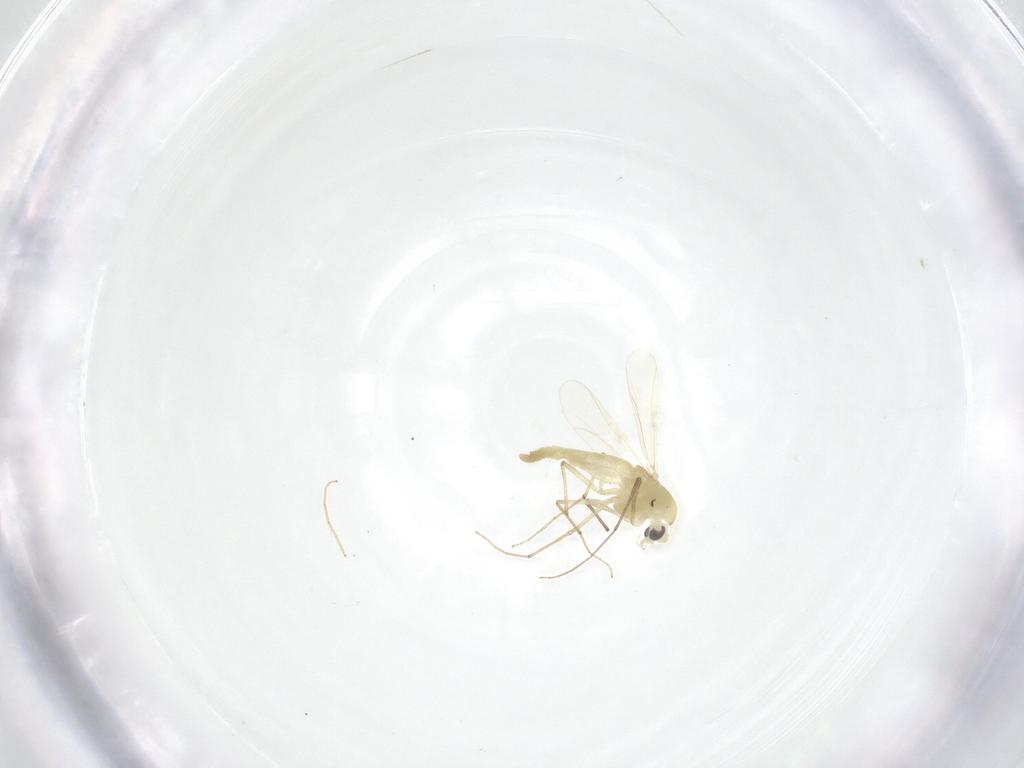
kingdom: Animalia
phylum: Arthropoda
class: Insecta
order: Diptera
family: Chironomidae
